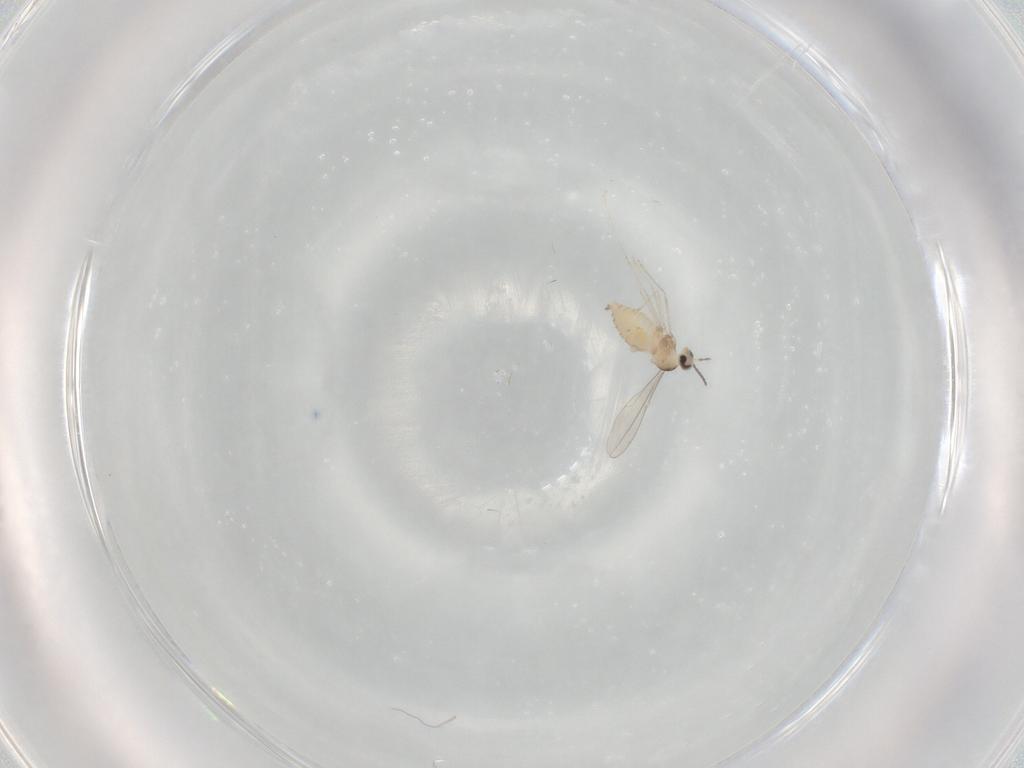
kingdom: Animalia
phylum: Arthropoda
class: Insecta
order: Diptera
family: Cecidomyiidae
